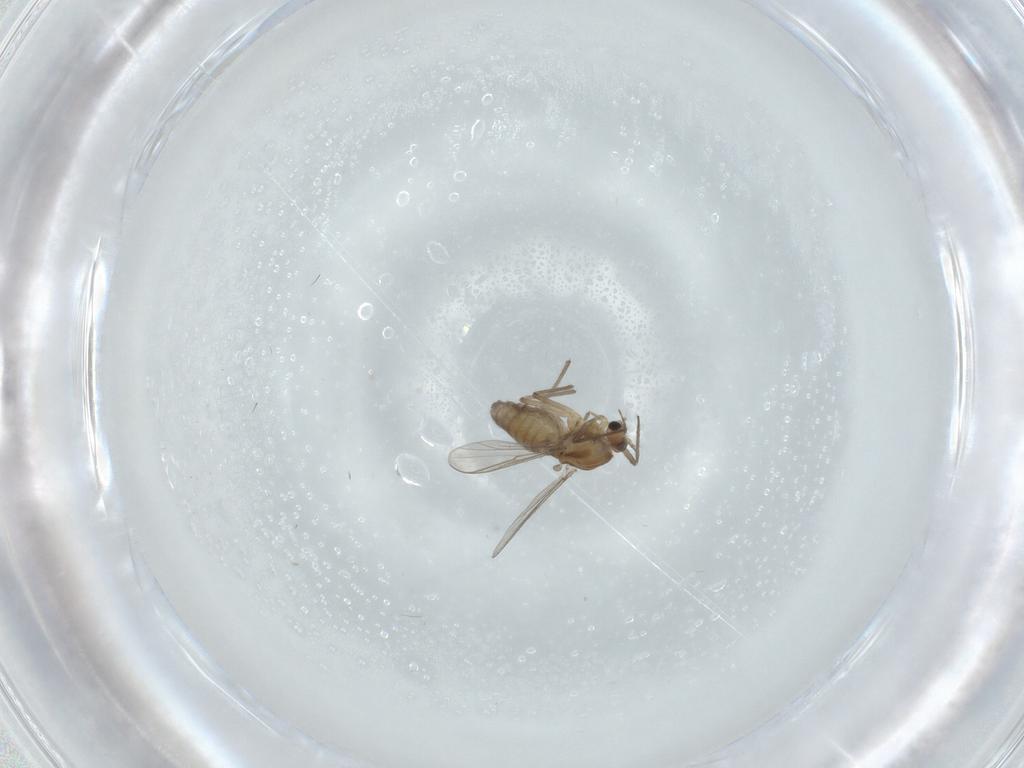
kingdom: Animalia
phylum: Arthropoda
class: Insecta
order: Diptera
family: Chironomidae
